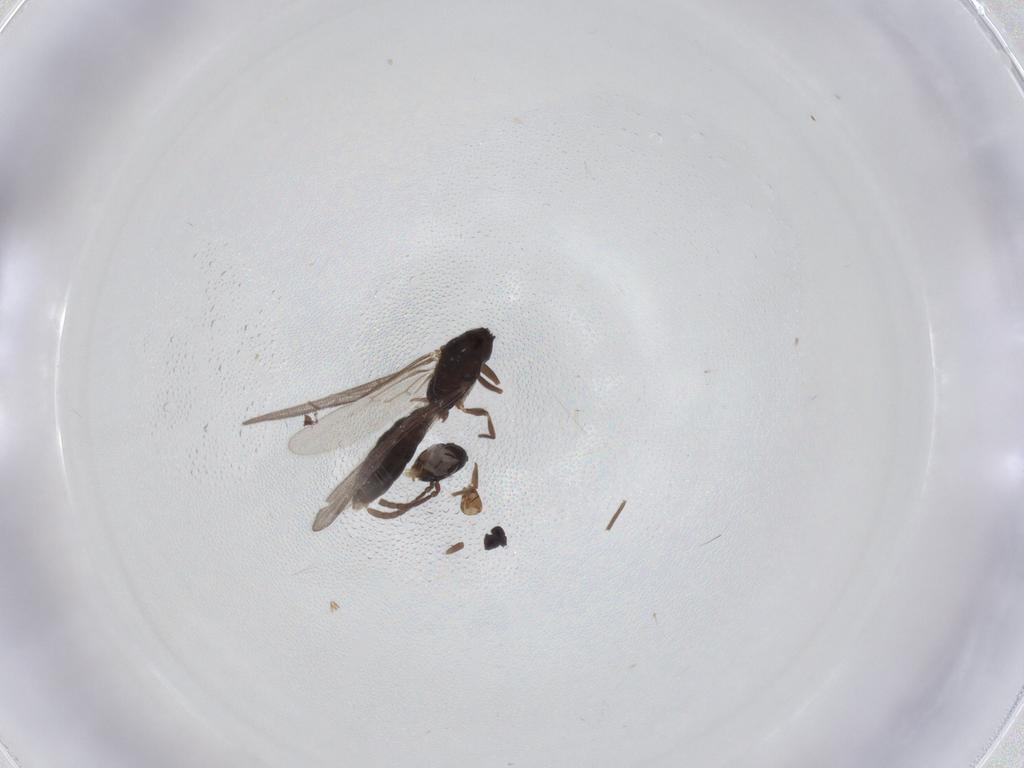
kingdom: Animalia
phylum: Arthropoda
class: Insecta
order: Hymenoptera
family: Formicidae
